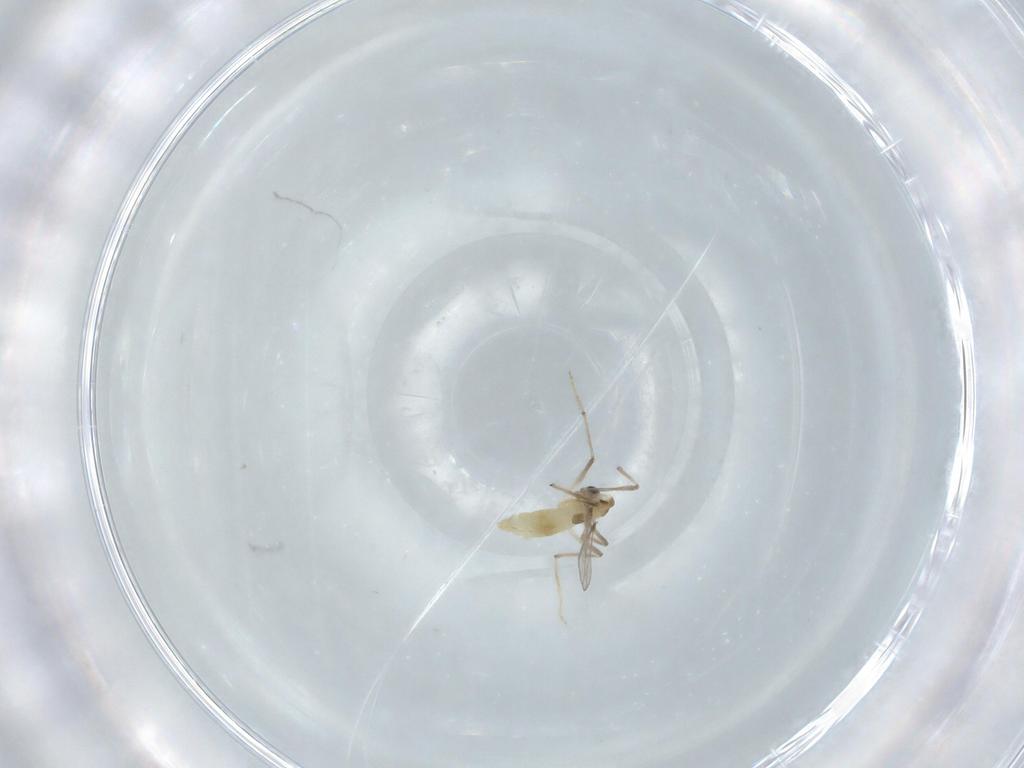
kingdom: Animalia
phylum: Arthropoda
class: Insecta
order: Diptera
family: Chironomidae
